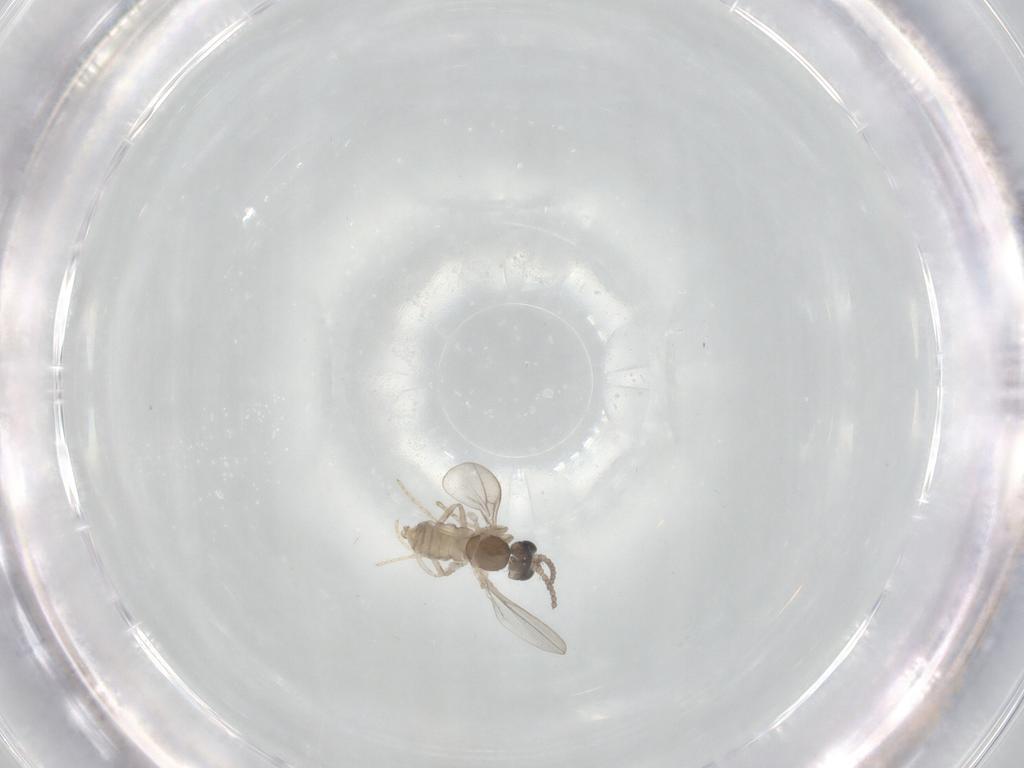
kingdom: Animalia
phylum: Arthropoda
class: Insecta
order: Diptera
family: Cecidomyiidae
